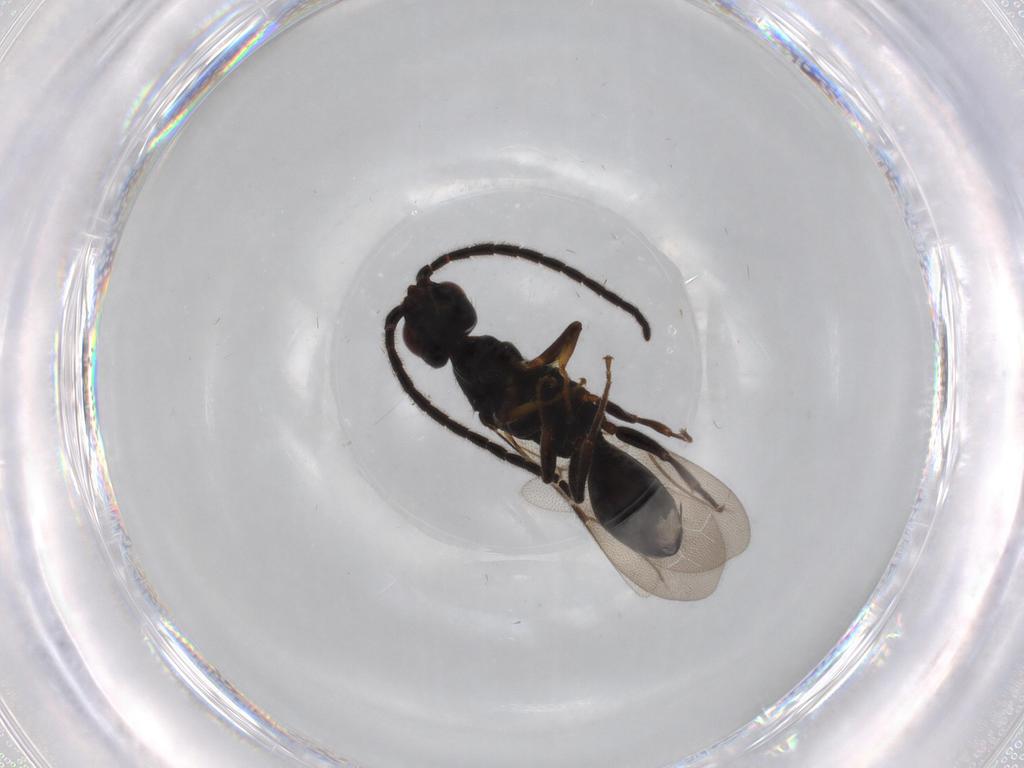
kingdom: Animalia
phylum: Arthropoda
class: Insecta
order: Hymenoptera
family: Bethylidae
